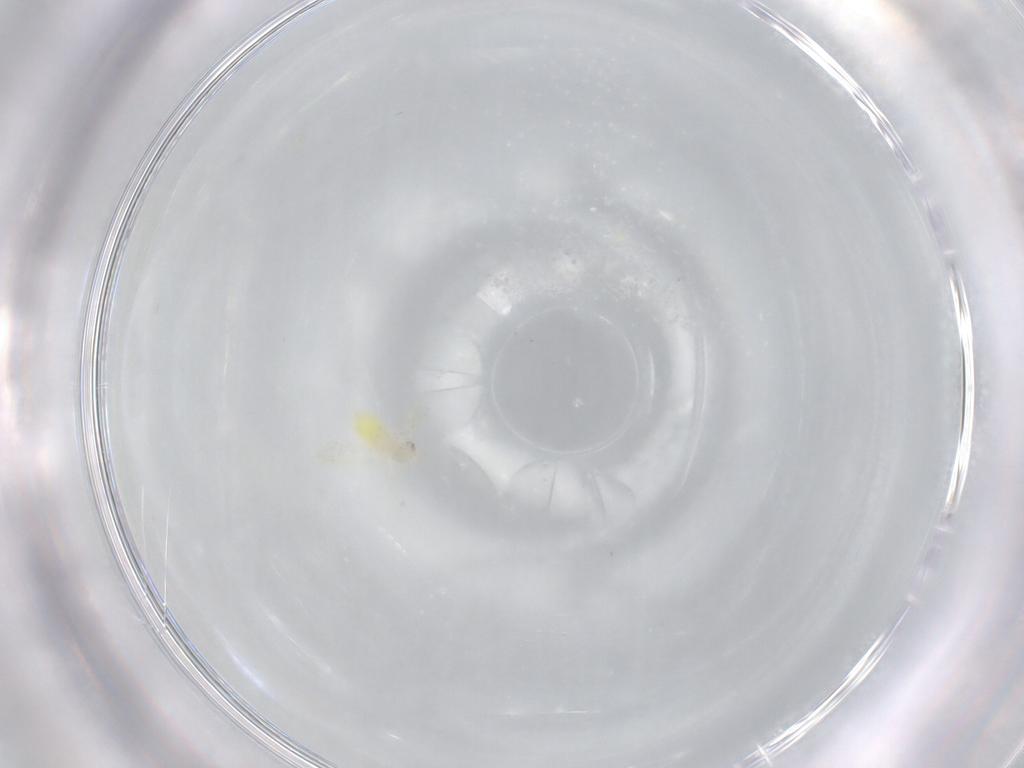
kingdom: Animalia
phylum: Arthropoda
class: Insecta
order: Hemiptera
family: Aleyrodidae
